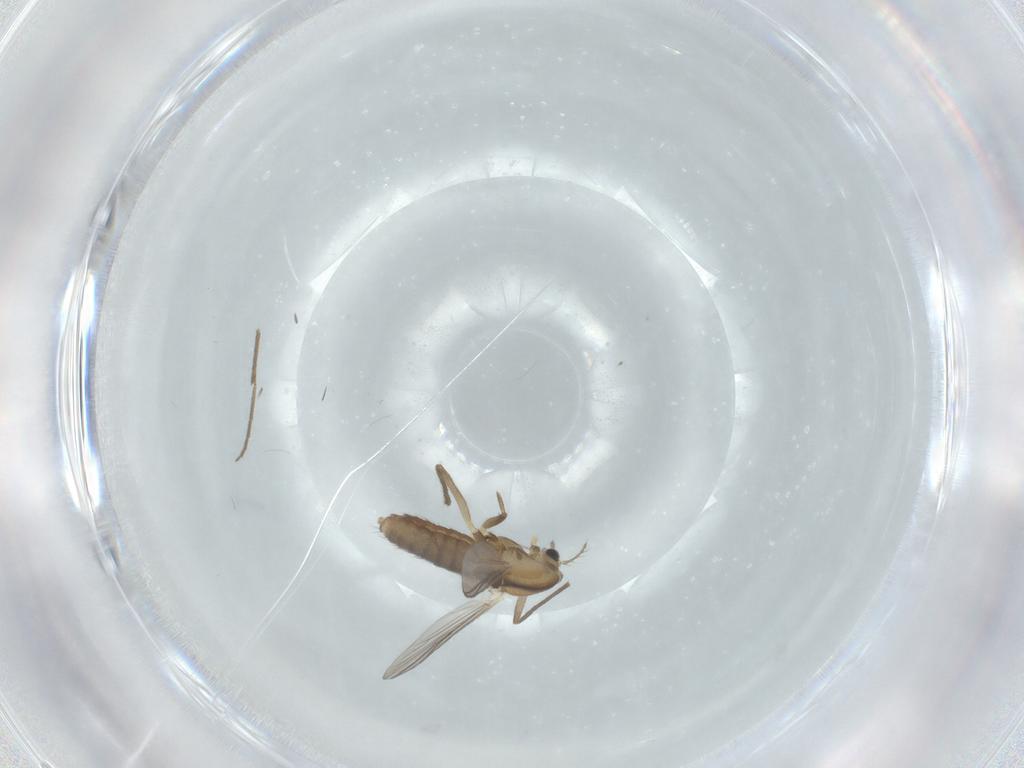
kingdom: Animalia
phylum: Arthropoda
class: Insecta
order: Diptera
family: Chironomidae
